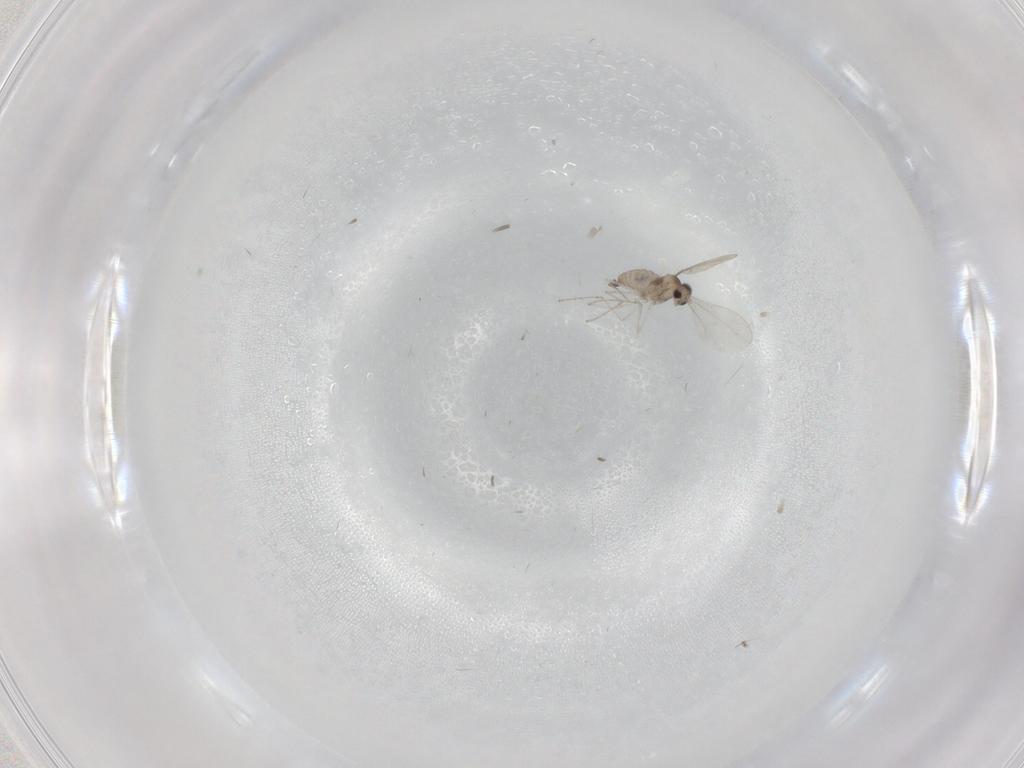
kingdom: Animalia
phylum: Arthropoda
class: Insecta
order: Diptera
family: Cecidomyiidae
